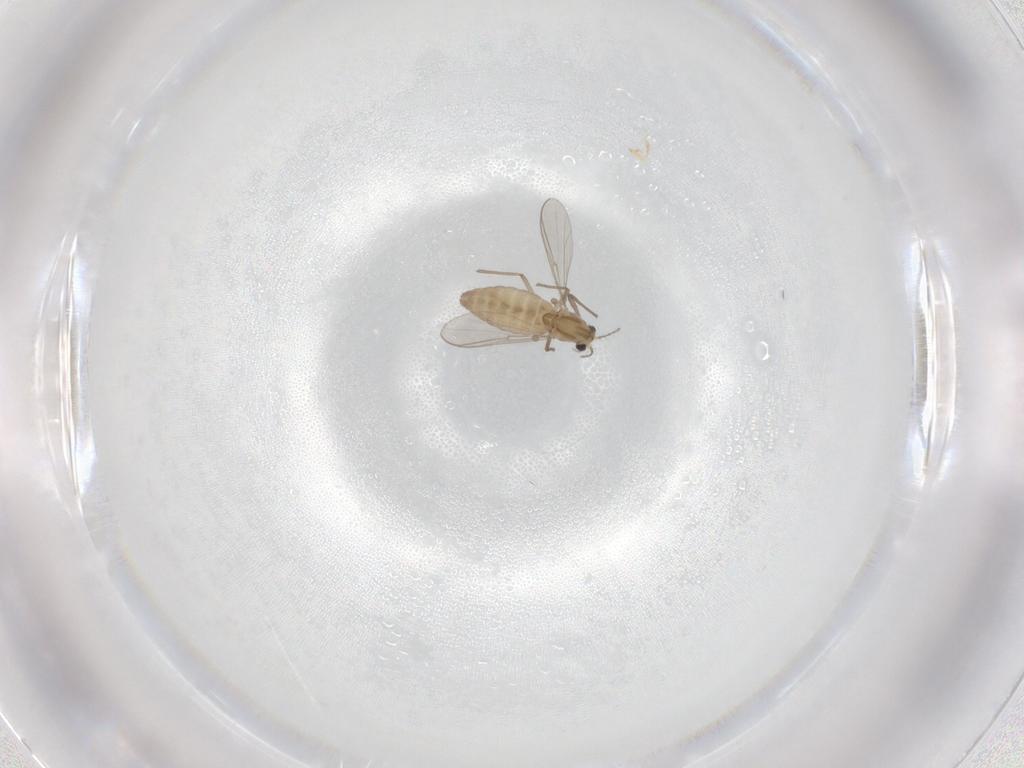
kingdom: Animalia
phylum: Arthropoda
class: Insecta
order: Diptera
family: Chironomidae
